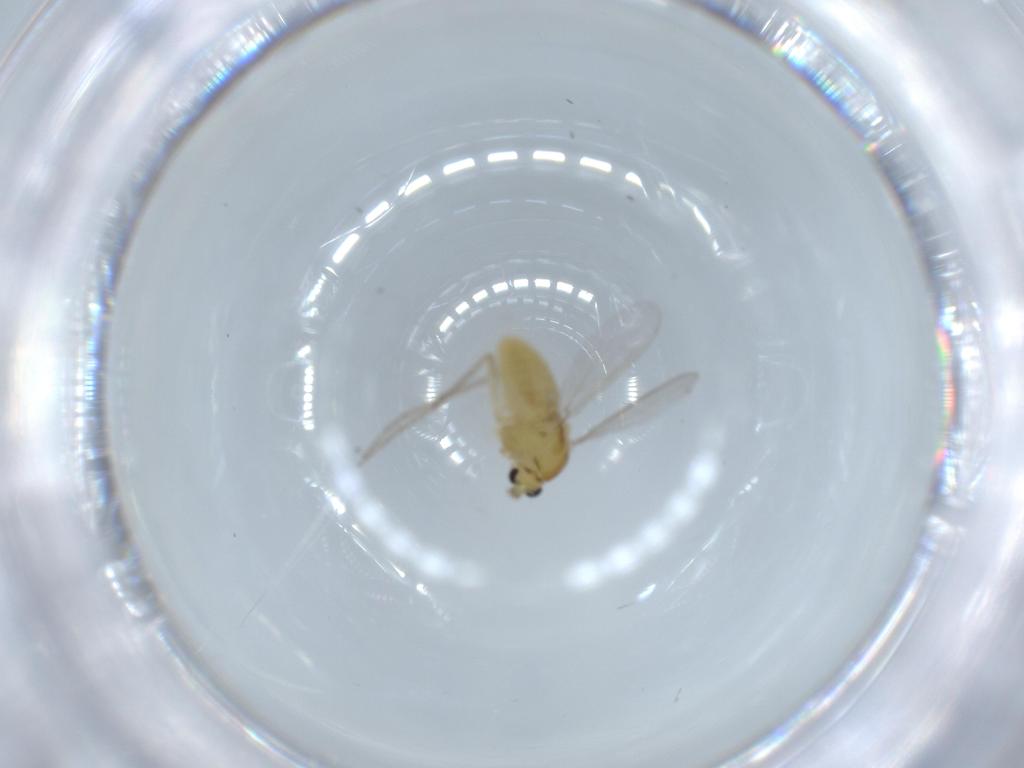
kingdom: Animalia
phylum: Arthropoda
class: Insecta
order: Diptera
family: Chironomidae
